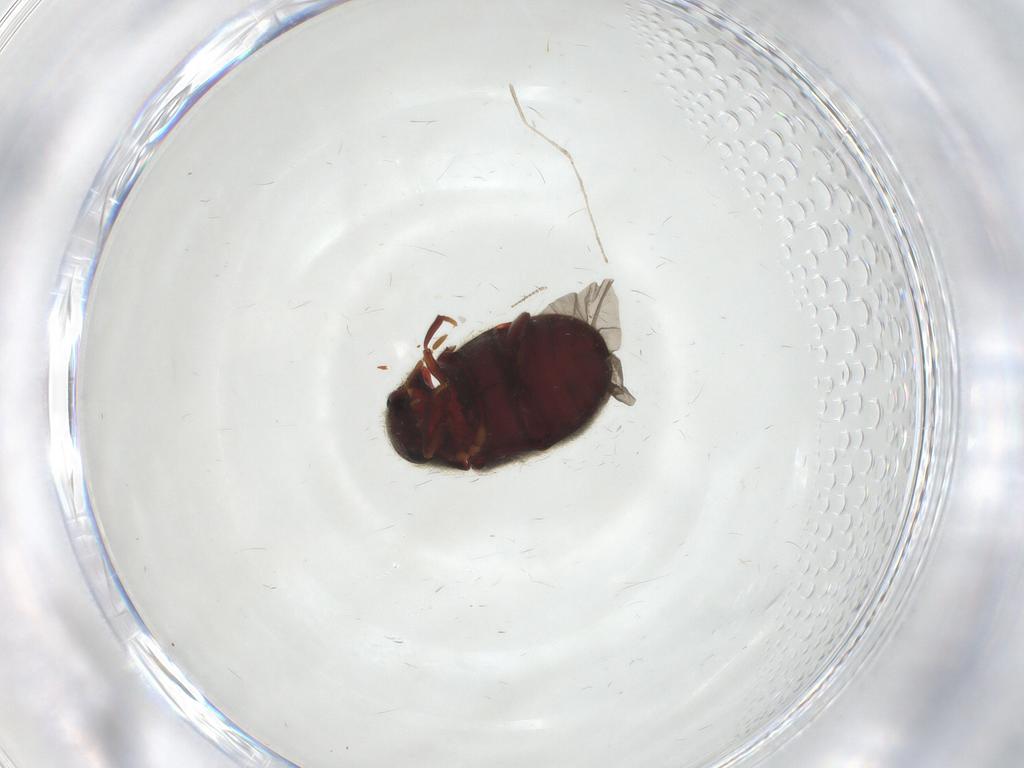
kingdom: Animalia
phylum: Arthropoda
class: Insecta
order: Coleoptera
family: Ptinidae
